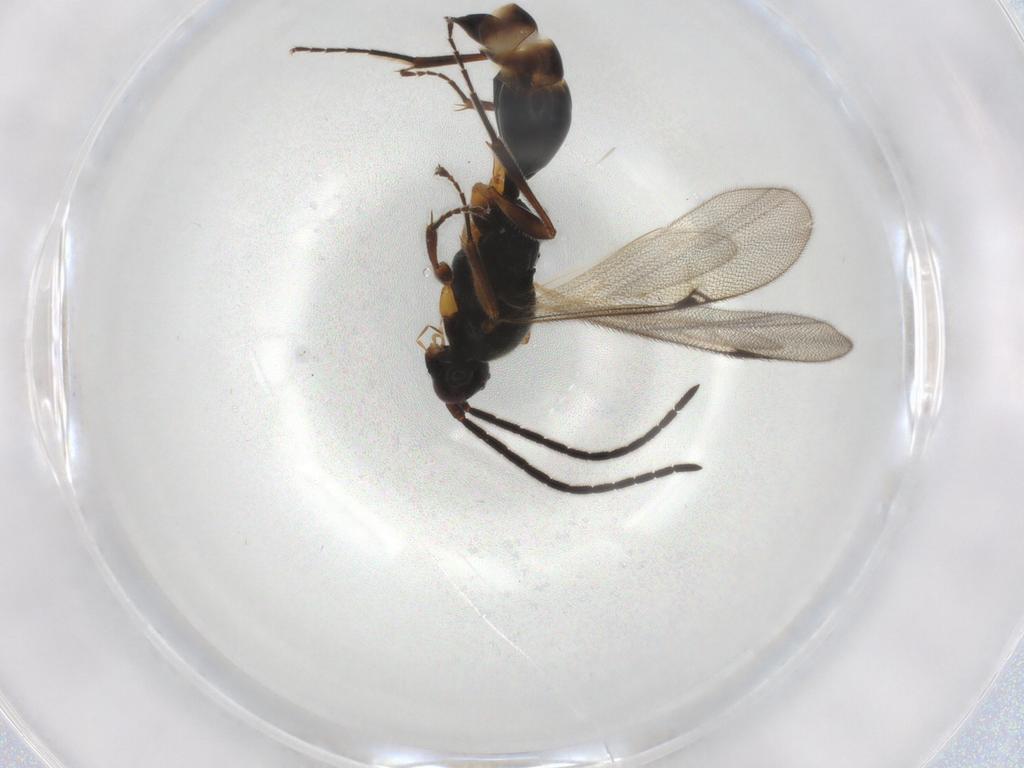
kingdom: Animalia
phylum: Arthropoda
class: Insecta
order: Hymenoptera
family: Proctotrupidae
